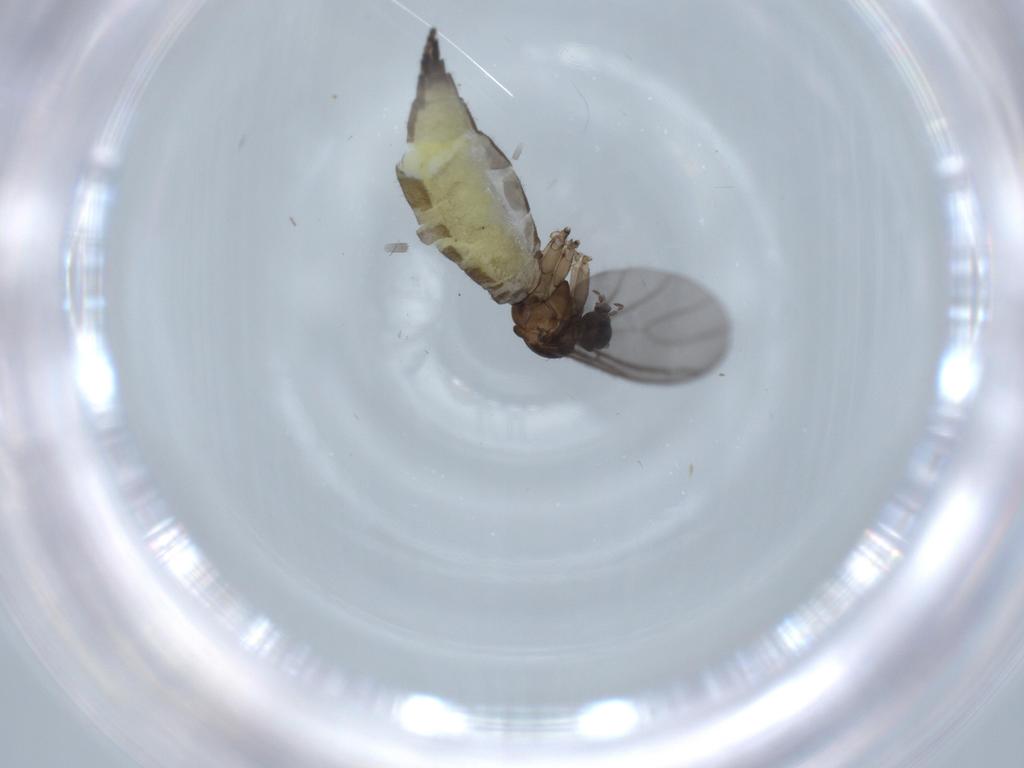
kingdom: Animalia
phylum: Arthropoda
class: Insecta
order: Diptera
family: Sciaridae
